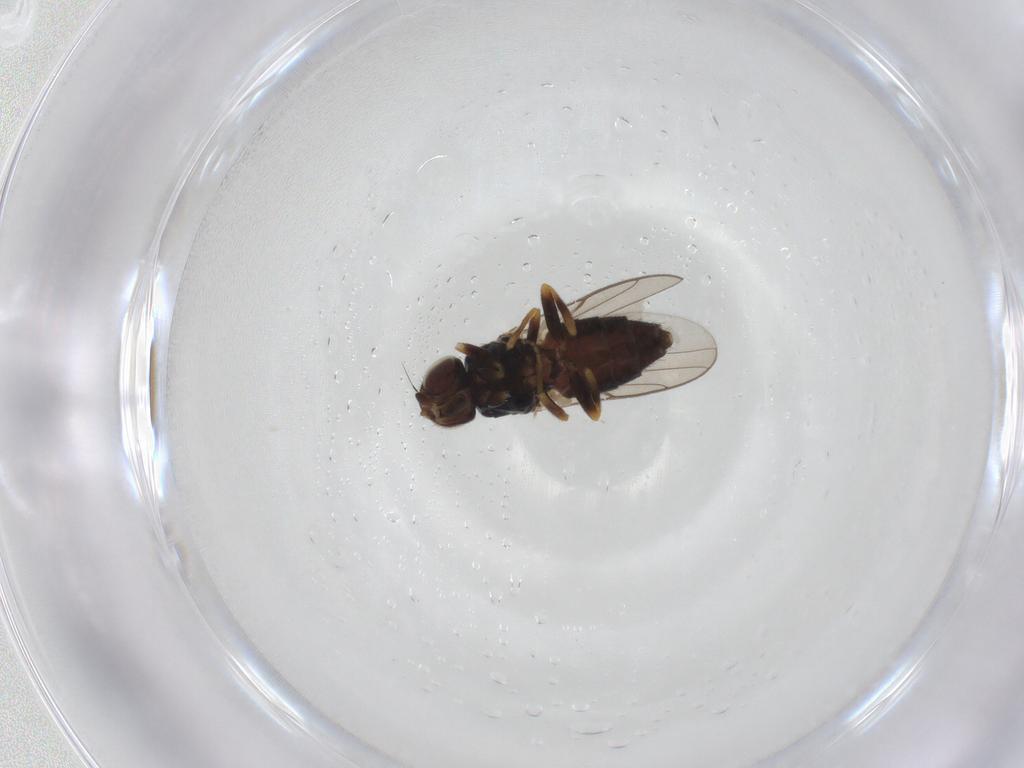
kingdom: Animalia
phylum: Arthropoda
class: Insecta
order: Diptera
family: Chloropidae
